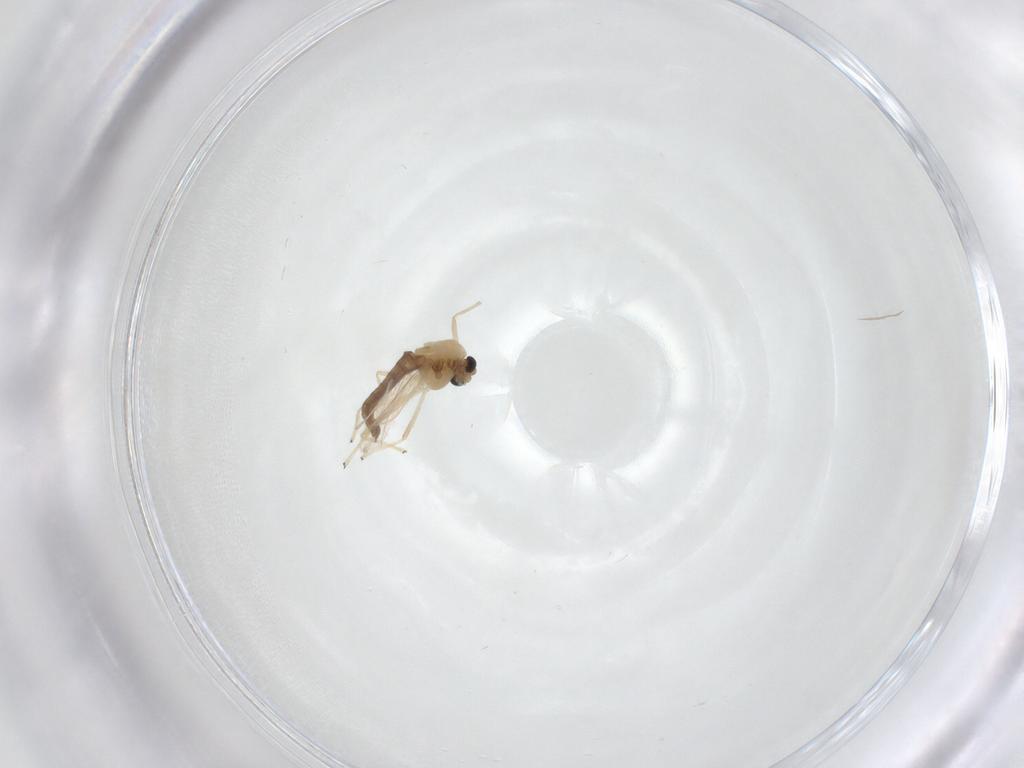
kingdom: Animalia
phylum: Arthropoda
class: Insecta
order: Diptera
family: Chironomidae
